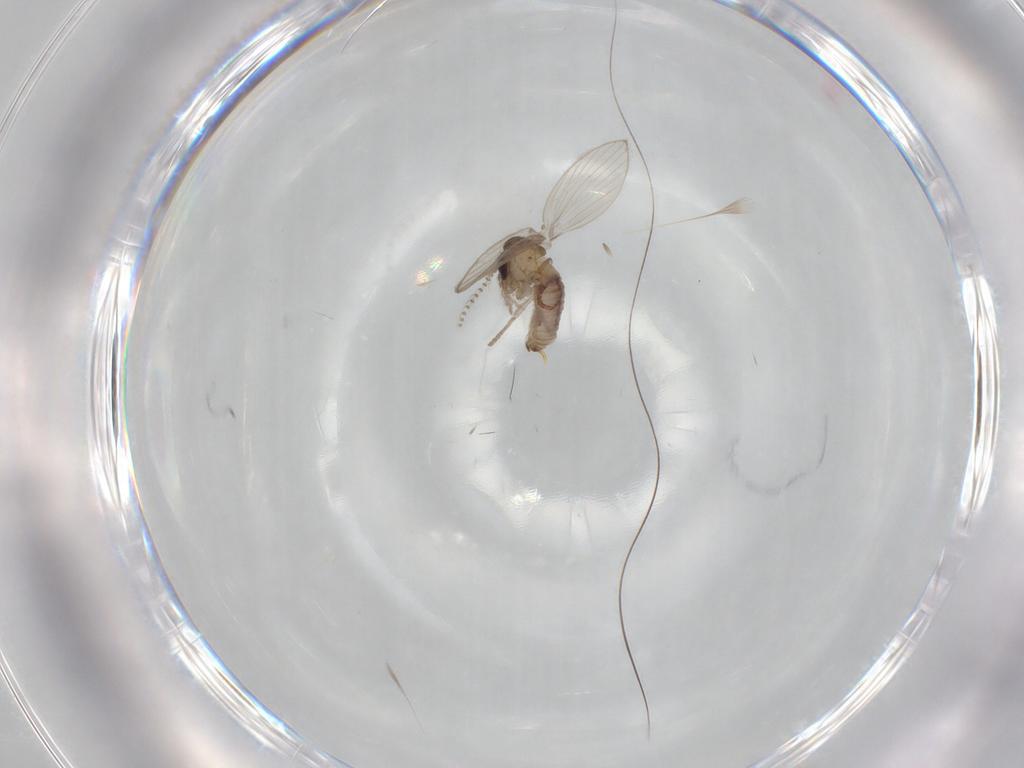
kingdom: Animalia
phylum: Arthropoda
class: Insecta
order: Diptera
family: Psychodidae
